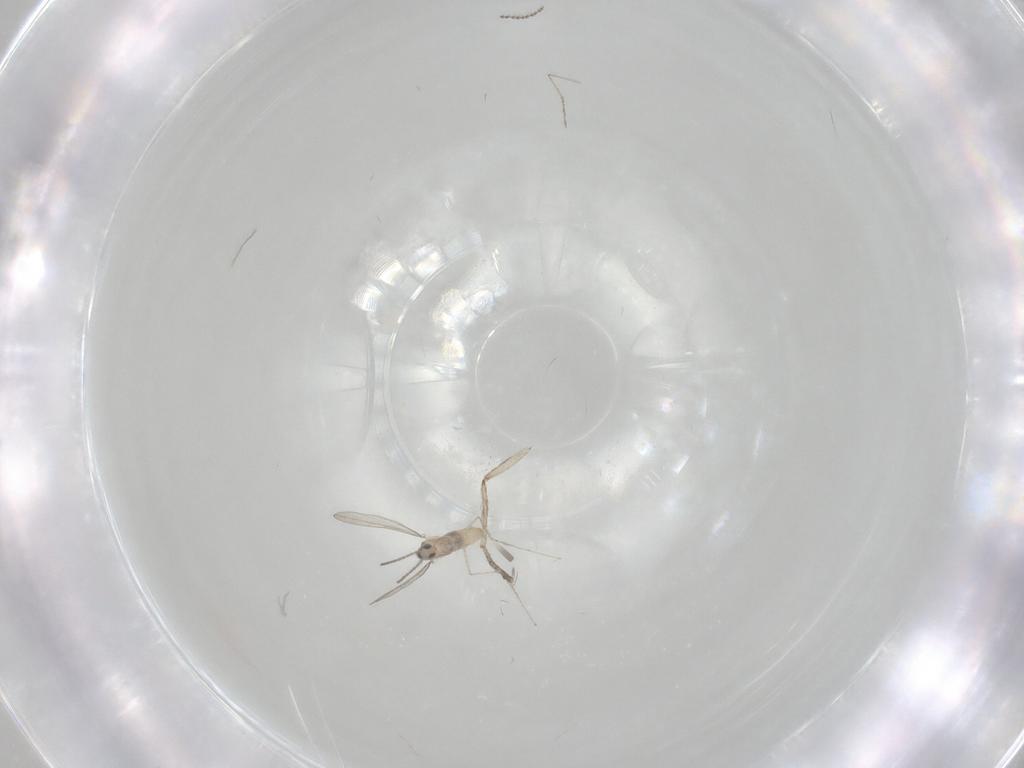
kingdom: Animalia
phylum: Arthropoda
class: Insecta
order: Diptera
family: Cecidomyiidae
